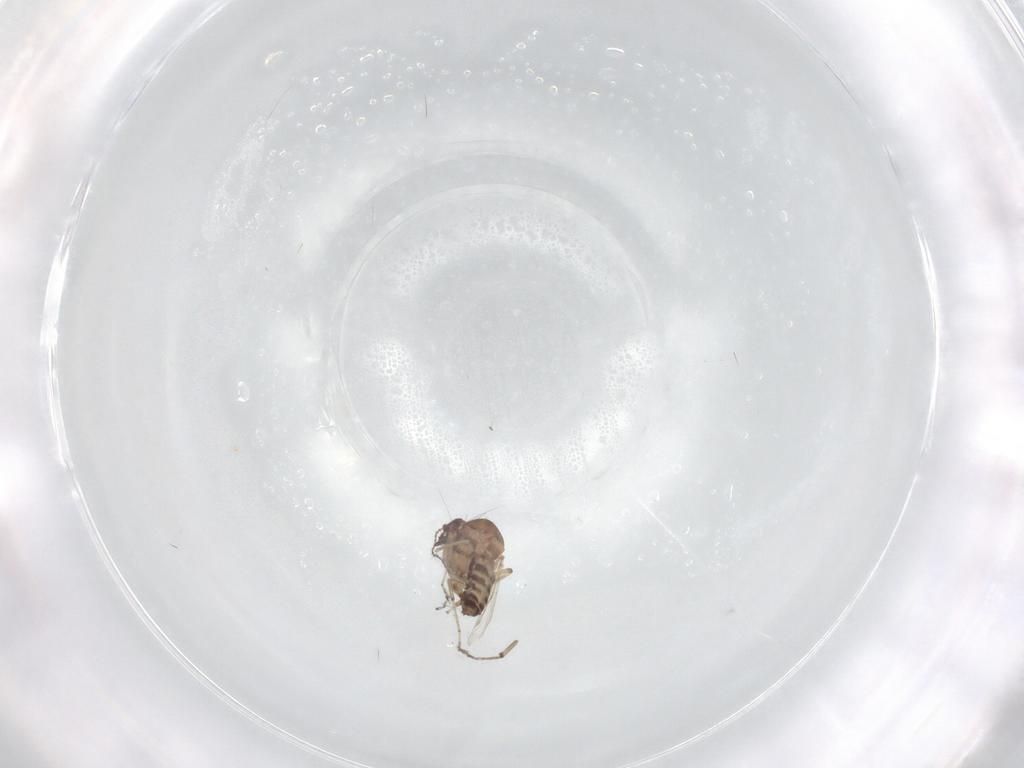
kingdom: Animalia
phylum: Arthropoda
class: Insecta
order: Diptera
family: Ceratopogonidae
